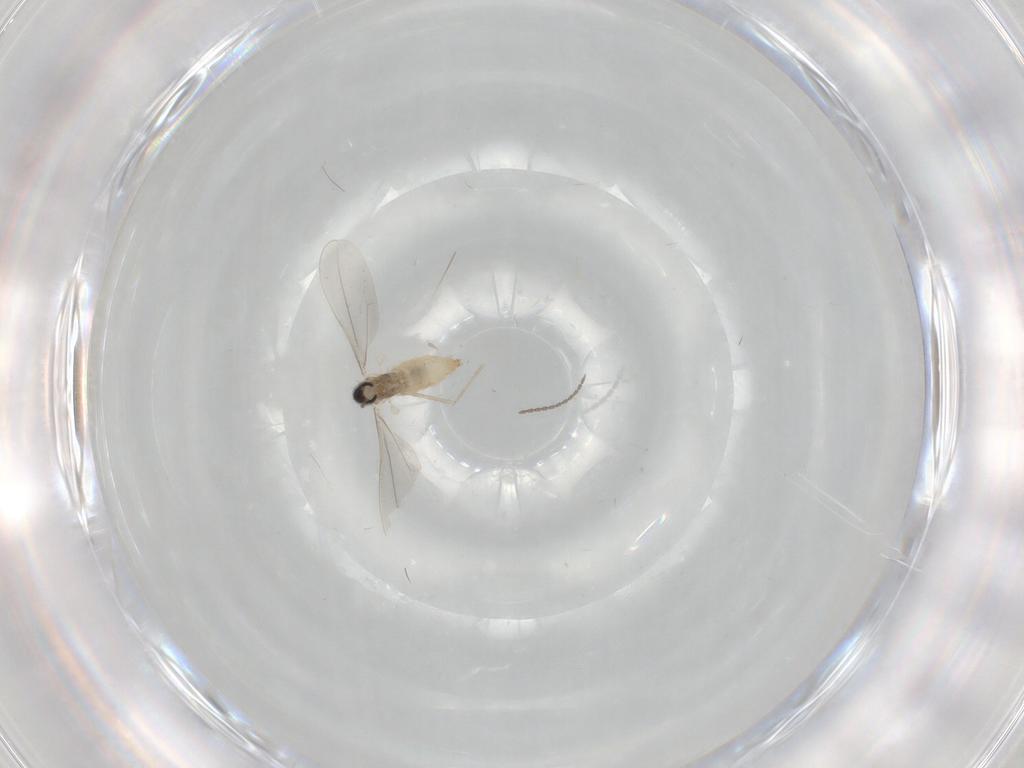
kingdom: Animalia
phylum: Arthropoda
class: Insecta
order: Diptera
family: Cecidomyiidae
